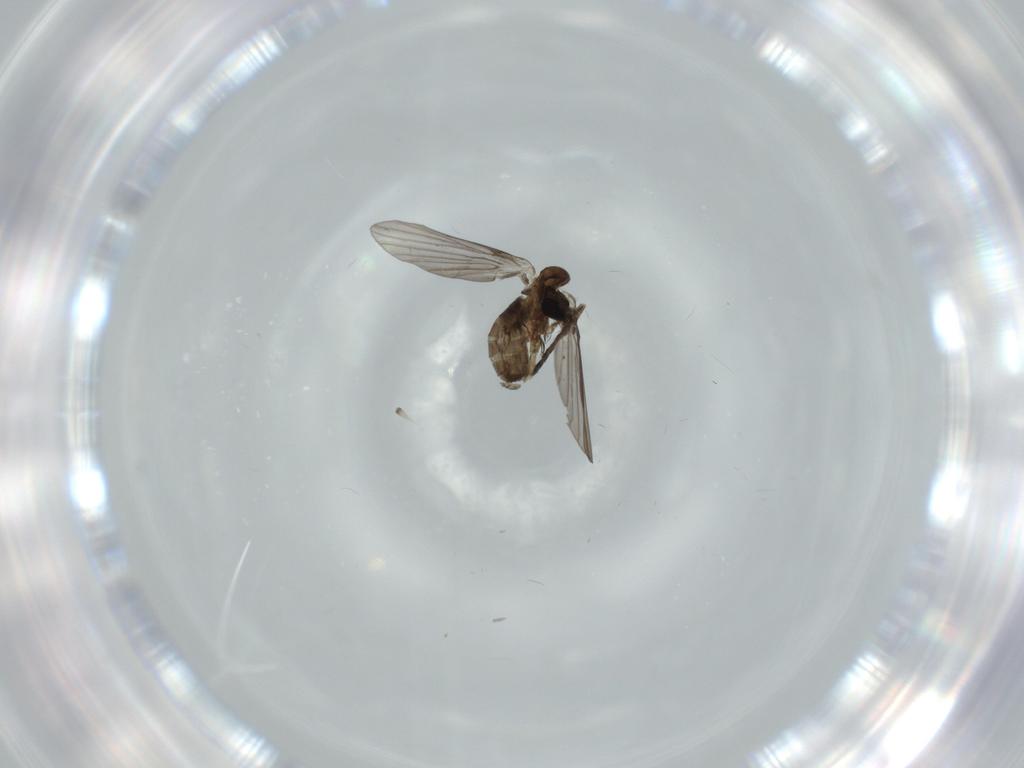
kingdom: Animalia
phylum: Arthropoda
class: Insecta
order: Diptera
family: Psychodidae
